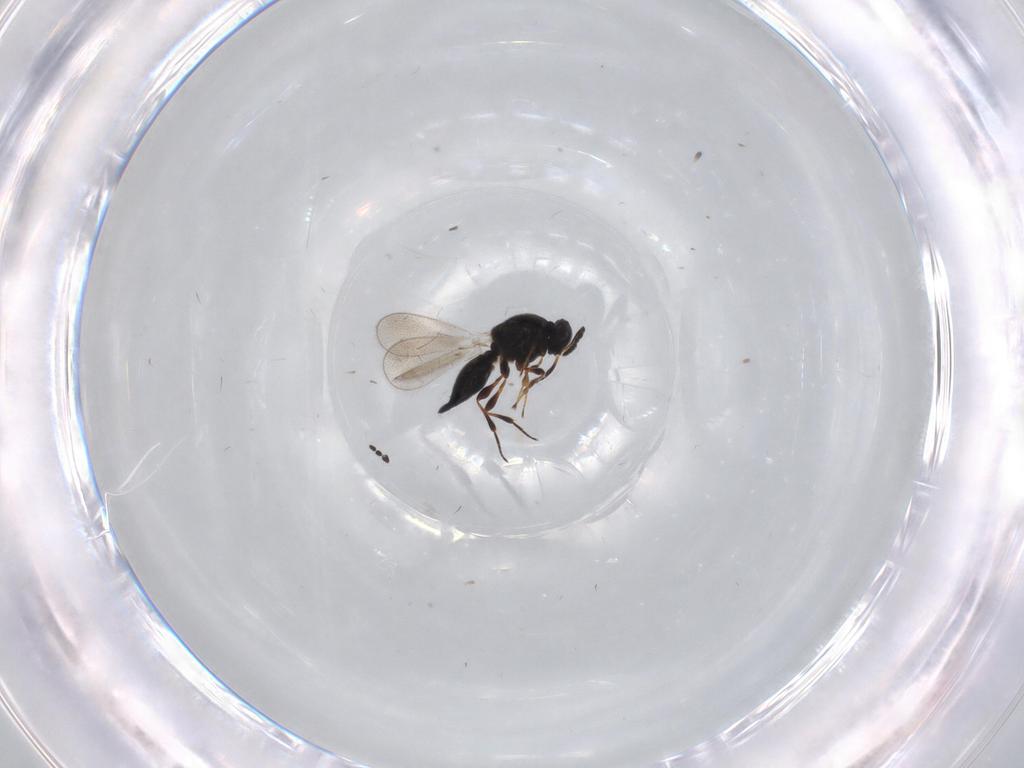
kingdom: Animalia
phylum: Arthropoda
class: Insecta
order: Hymenoptera
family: Platygastridae
